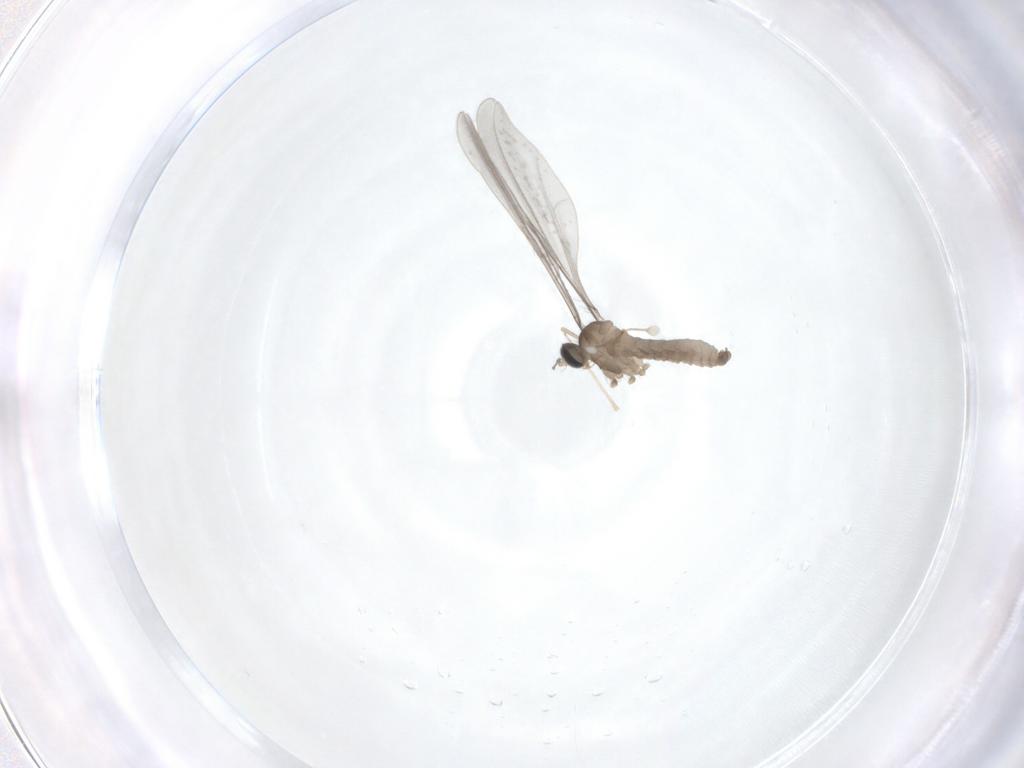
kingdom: Animalia
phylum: Arthropoda
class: Insecta
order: Diptera
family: Cecidomyiidae
